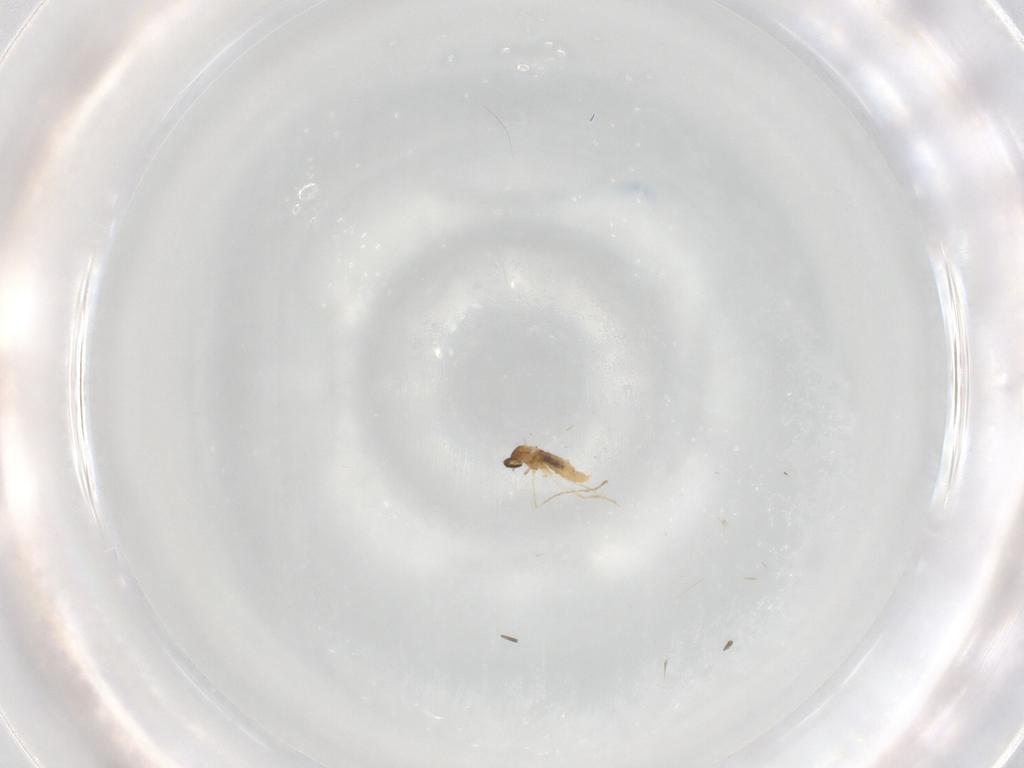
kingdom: Animalia
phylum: Arthropoda
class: Insecta
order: Diptera
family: Cecidomyiidae
